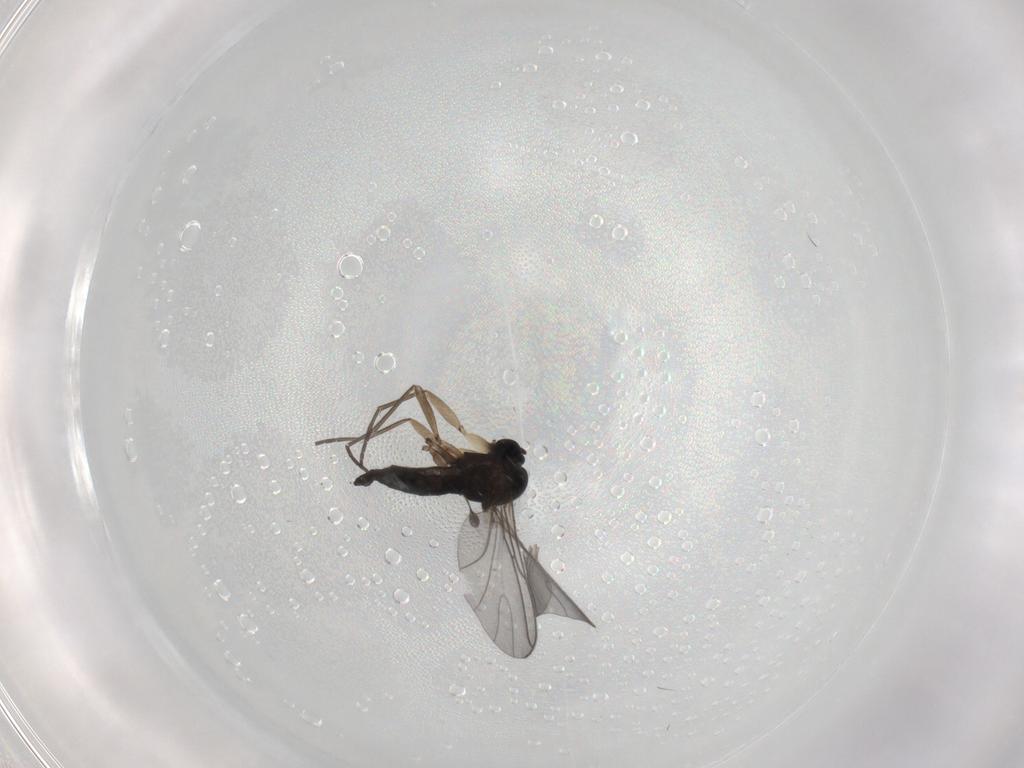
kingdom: Animalia
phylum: Arthropoda
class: Insecta
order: Diptera
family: Sciaridae
